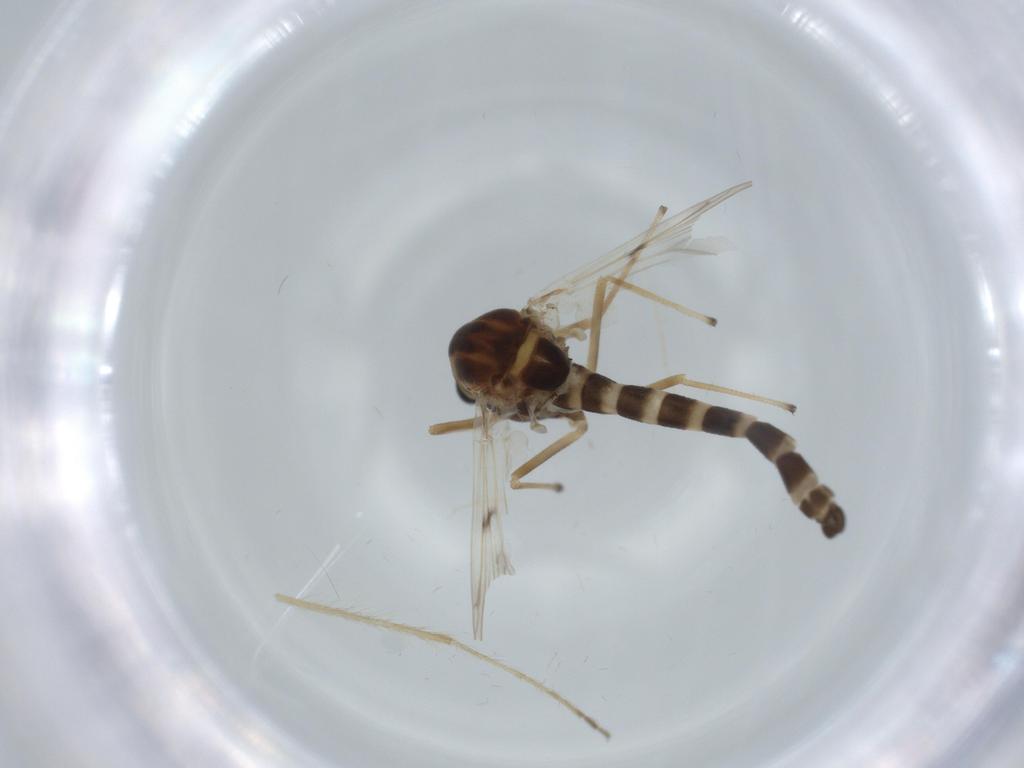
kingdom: Animalia
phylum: Arthropoda
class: Insecta
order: Diptera
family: Chironomidae
